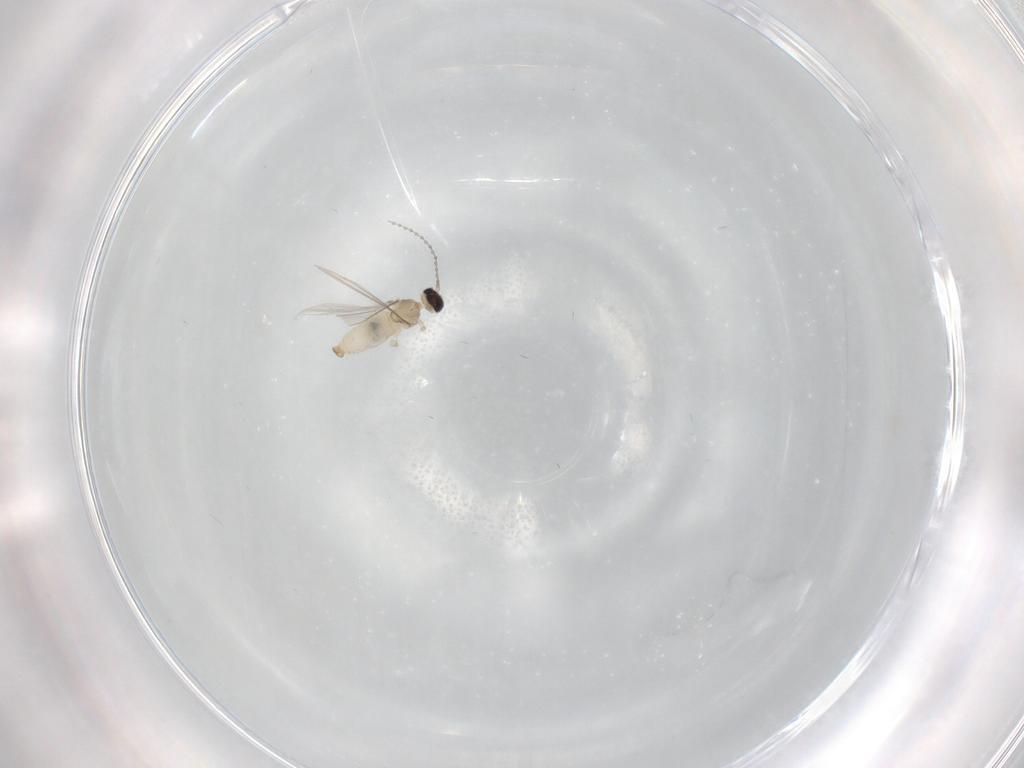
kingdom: Animalia
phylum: Arthropoda
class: Insecta
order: Diptera
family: Cecidomyiidae
